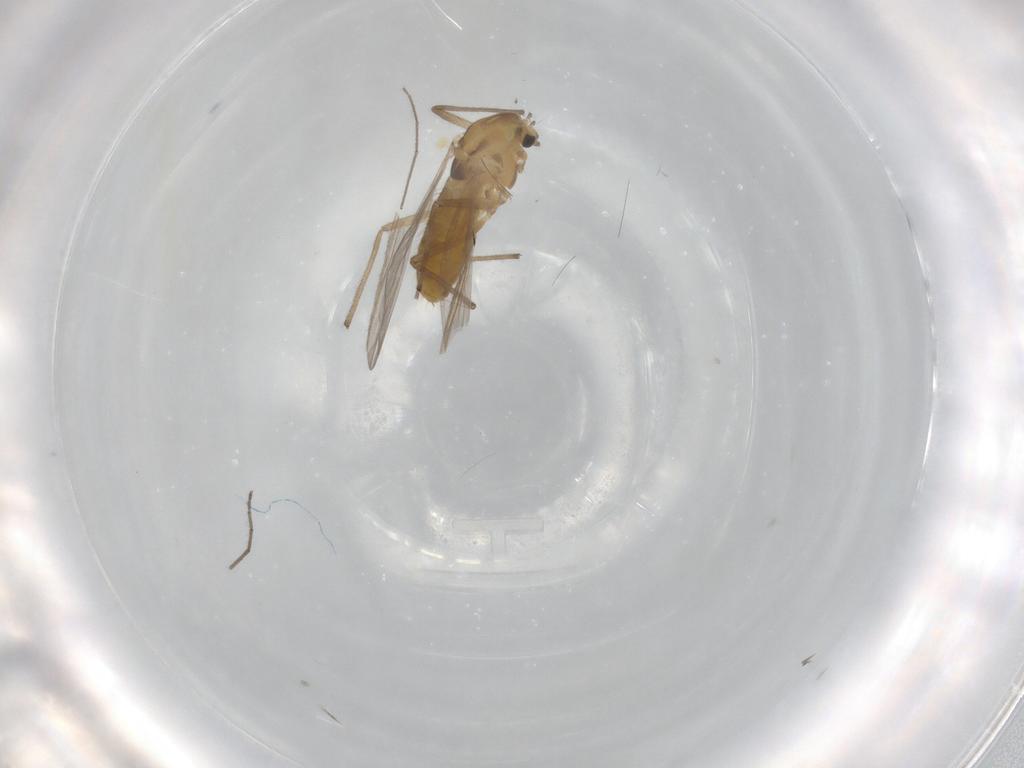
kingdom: Animalia
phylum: Arthropoda
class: Insecta
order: Diptera
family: Chironomidae
